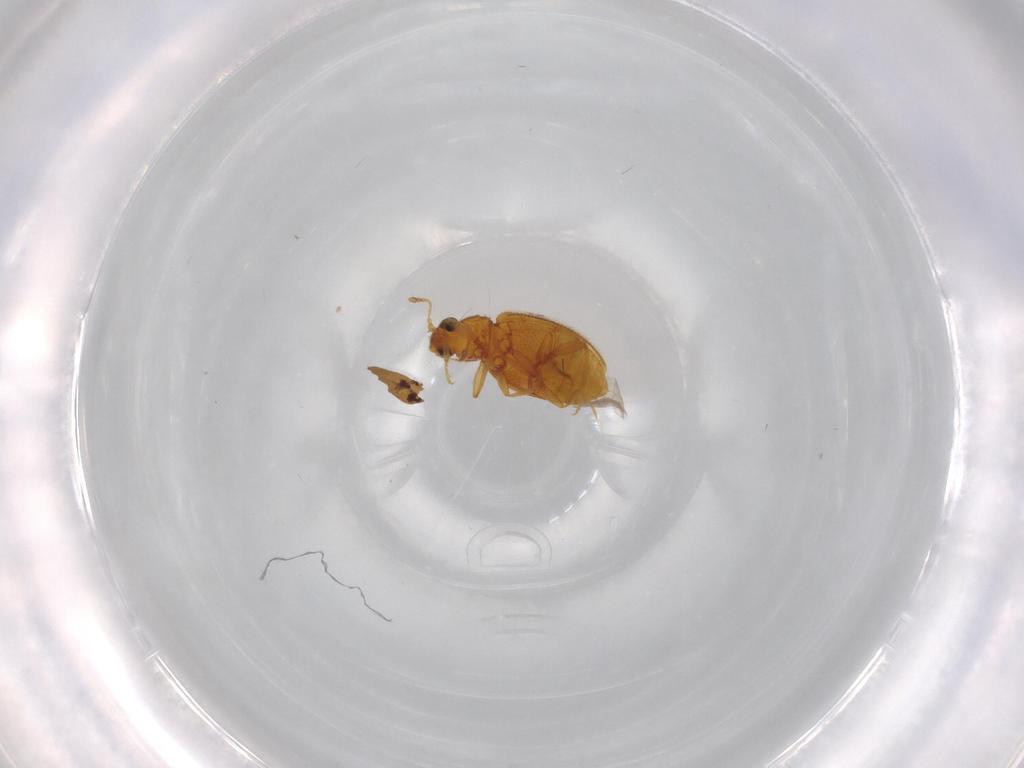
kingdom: Animalia
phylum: Arthropoda
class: Insecta
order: Coleoptera
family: Latridiidae
